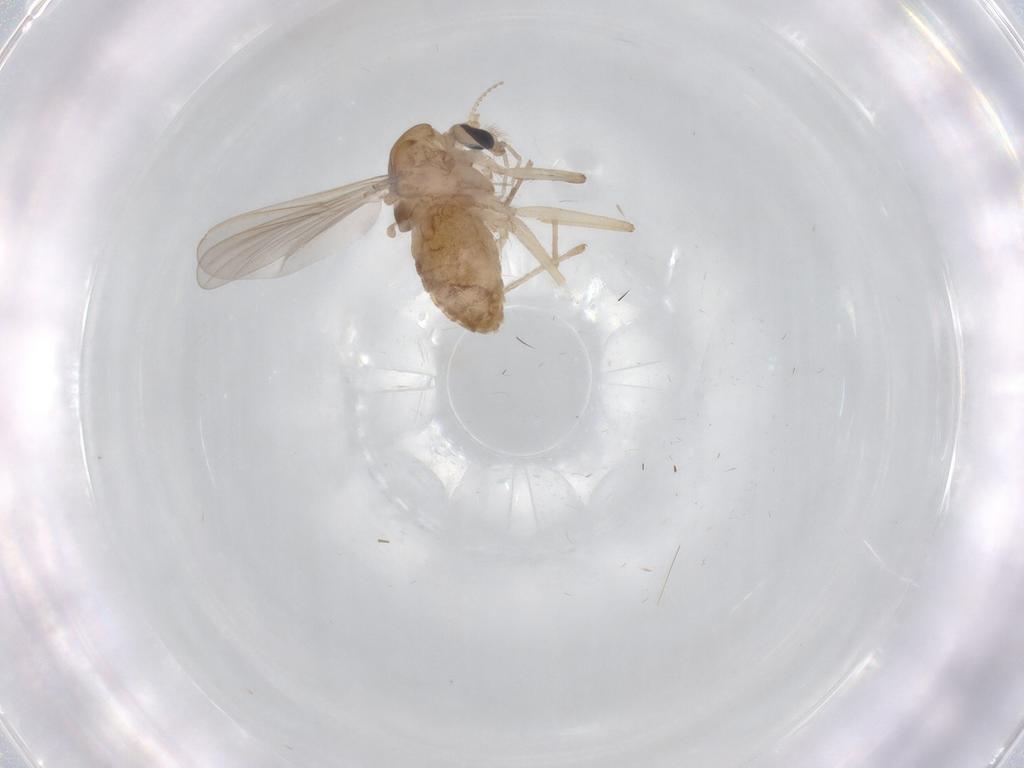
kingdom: Animalia
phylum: Arthropoda
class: Insecta
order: Diptera
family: Chironomidae
